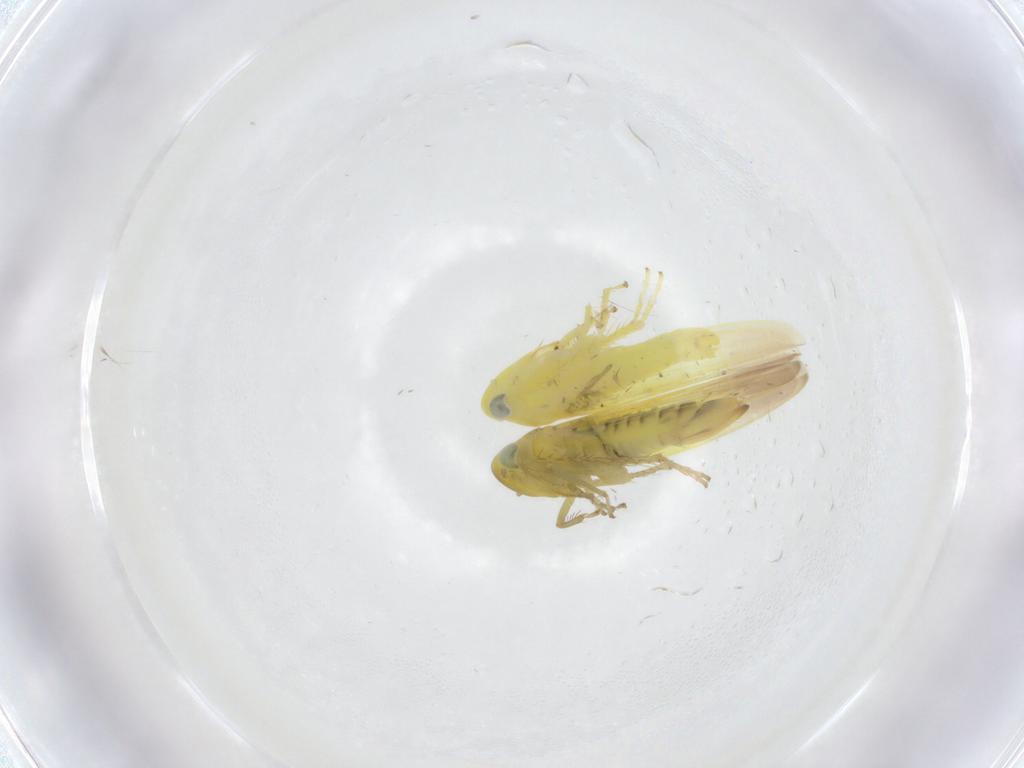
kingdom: Animalia
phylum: Arthropoda
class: Insecta
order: Hemiptera
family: Cicadellidae
